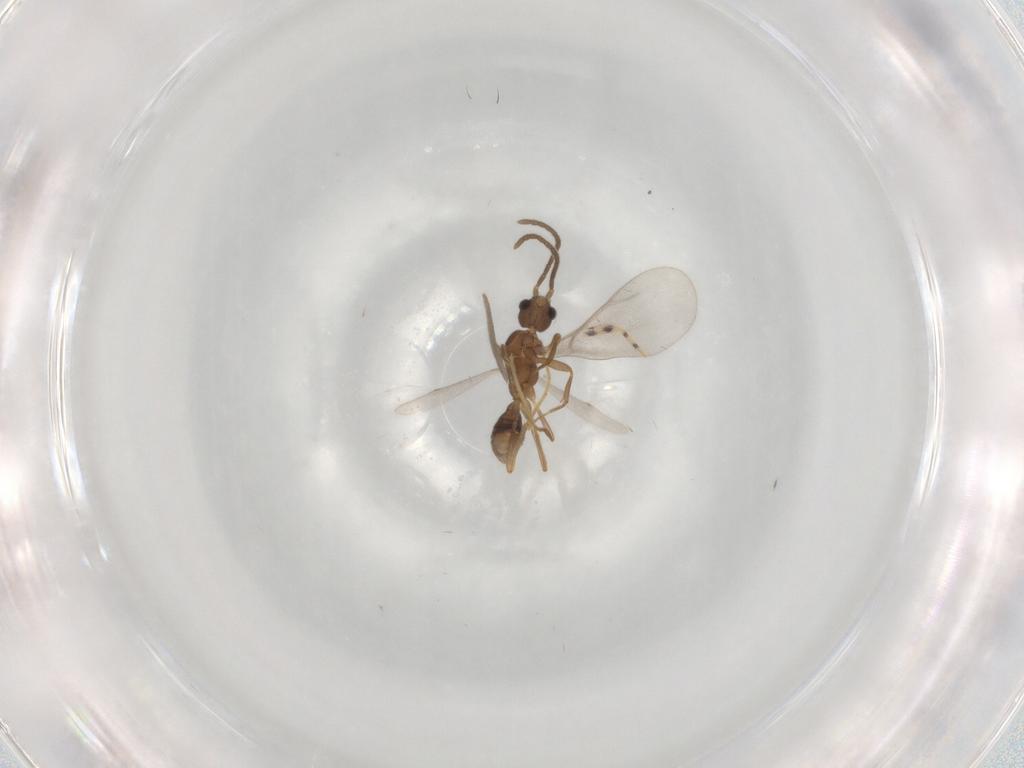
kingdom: Animalia
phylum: Arthropoda
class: Insecta
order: Hymenoptera
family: Formicidae
